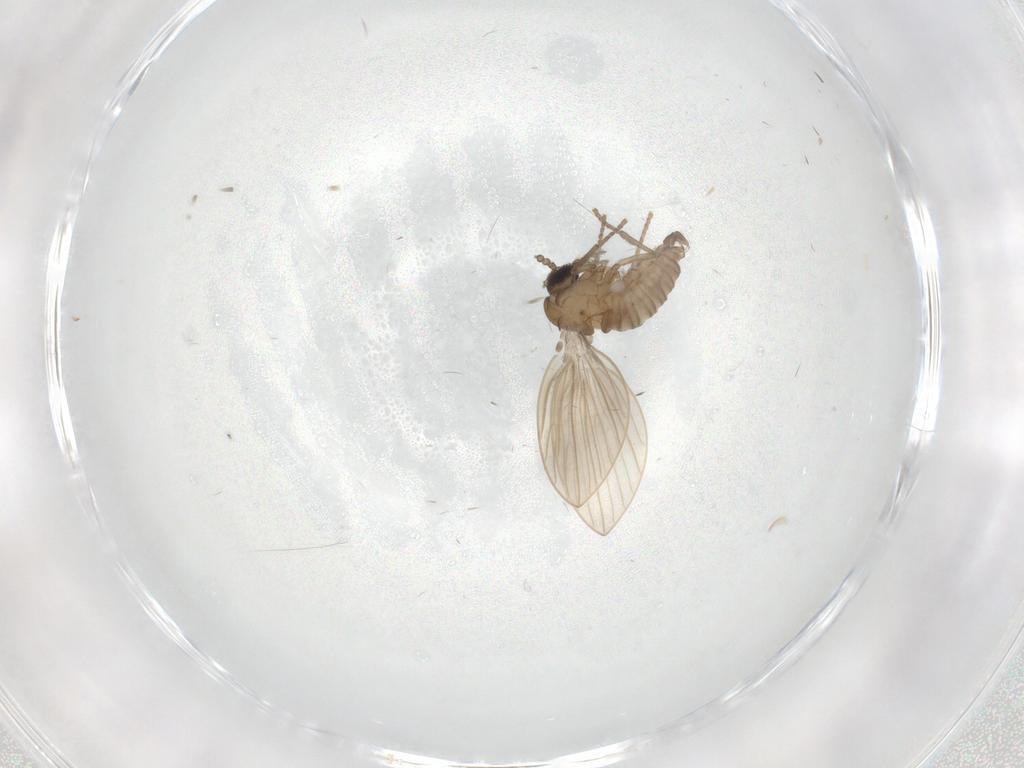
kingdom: Animalia
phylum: Arthropoda
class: Insecta
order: Diptera
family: Psychodidae
